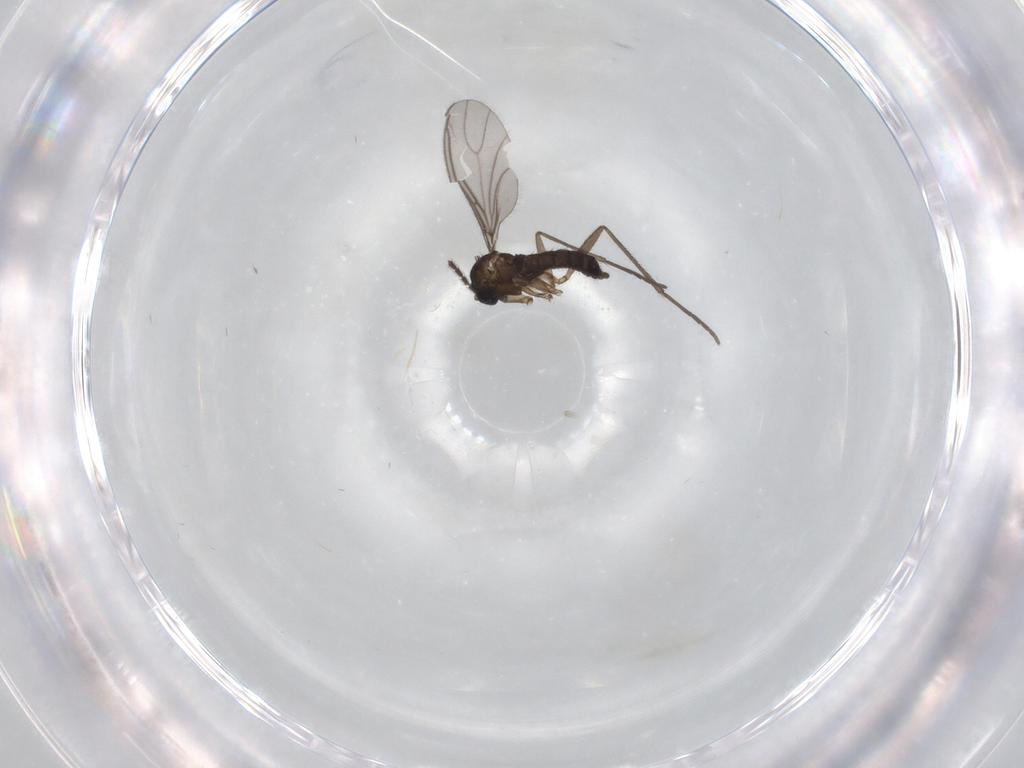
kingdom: Animalia
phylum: Arthropoda
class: Insecta
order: Diptera
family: Sciaridae
